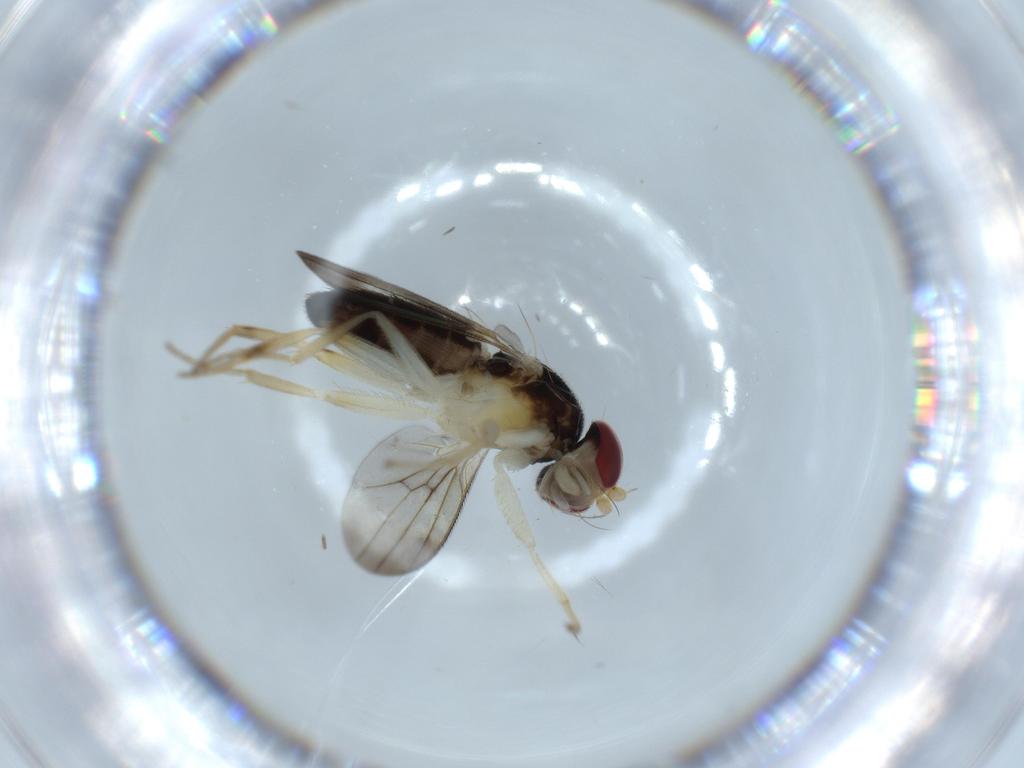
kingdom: Animalia
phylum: Arthropoda
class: Insecta
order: Diptera
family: Clusiidae
